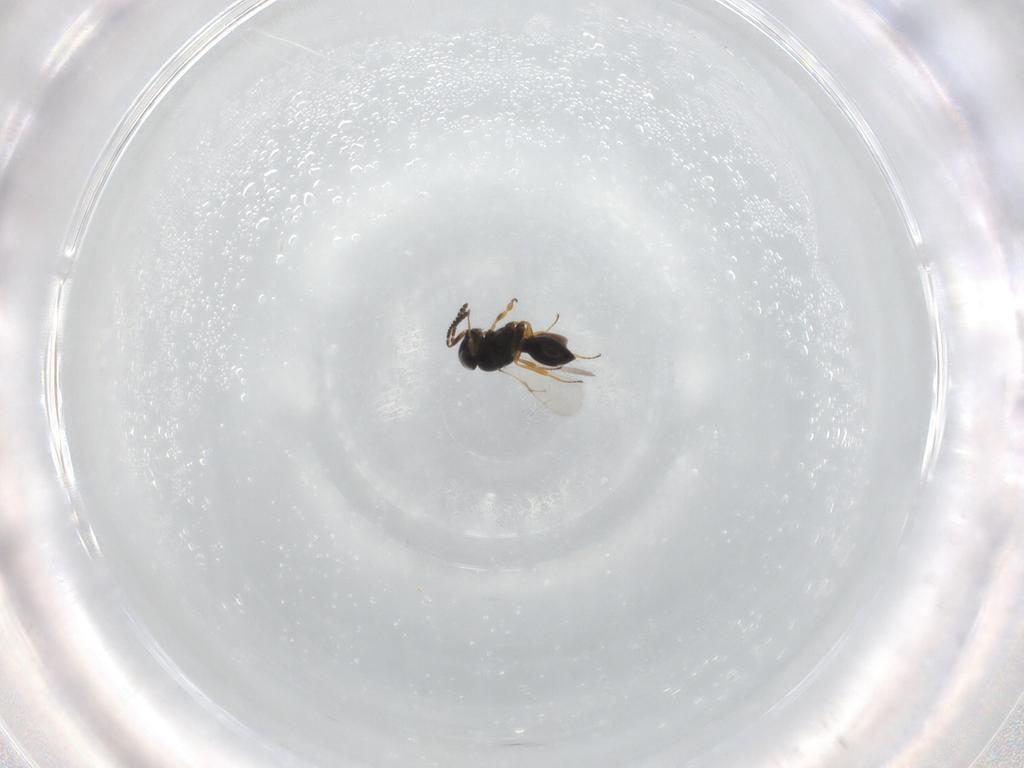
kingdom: Animalia
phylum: Arthropoda
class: Insecta
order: Hymenoptera
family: Scelionidae
